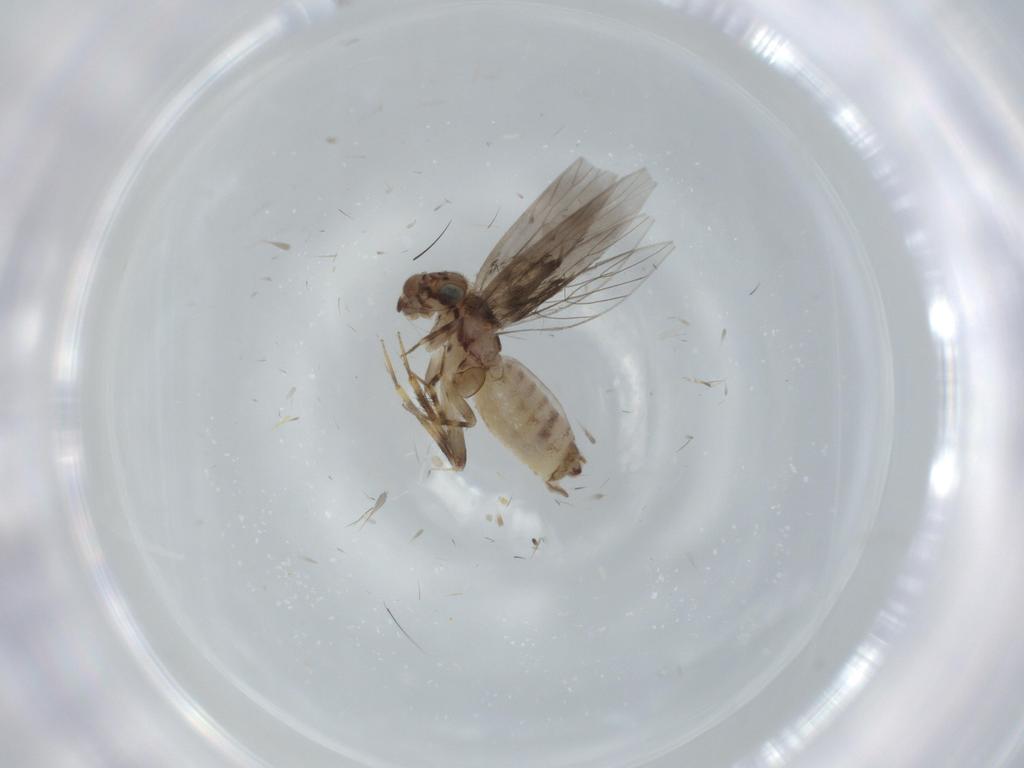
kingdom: Animalia
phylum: Arthropoda
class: Insecta
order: Psocodea
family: Lepidopsocidae
